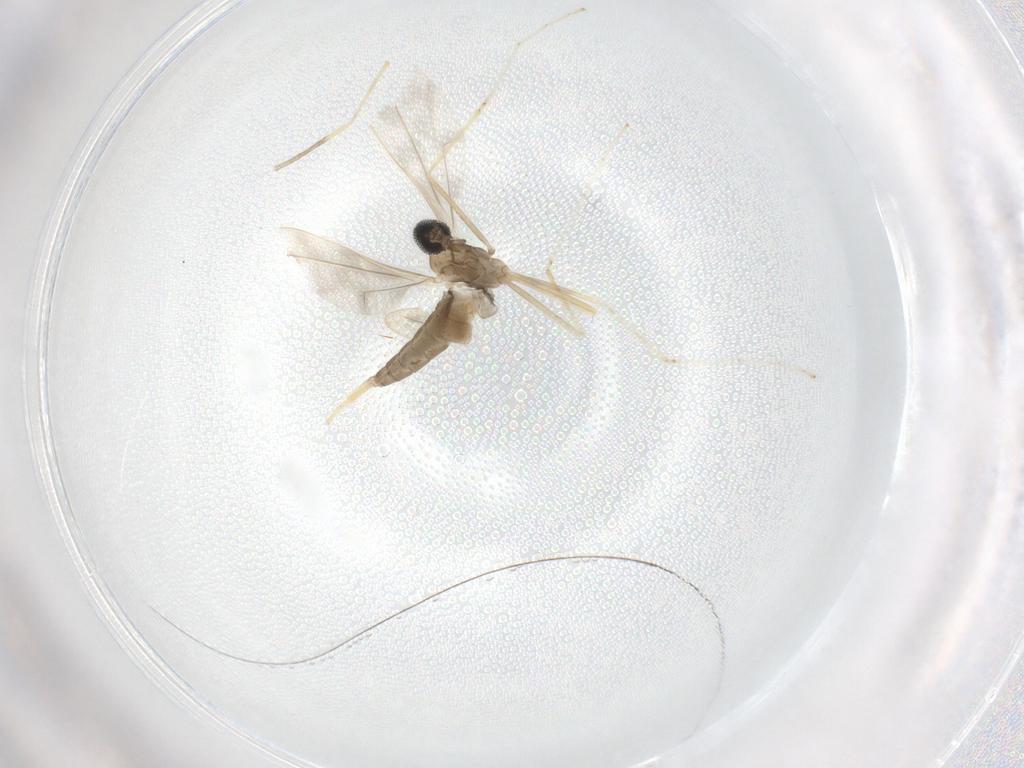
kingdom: Animalia
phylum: Arthropoda
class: Insecta
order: Diptera
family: Cecidomyiidae
